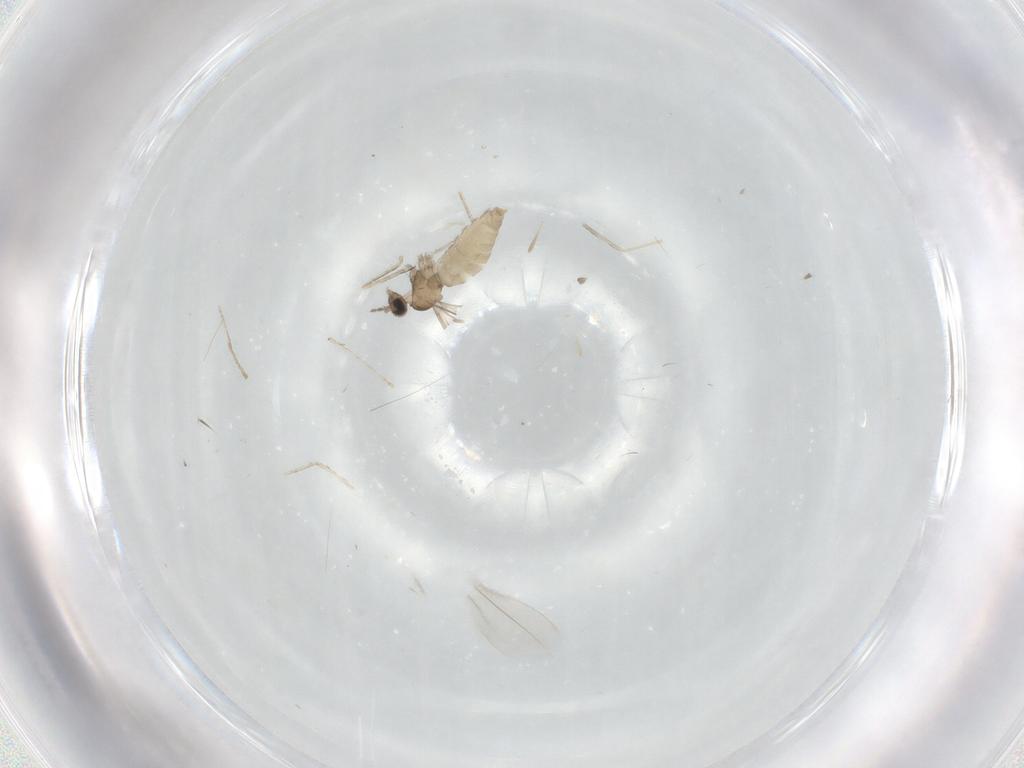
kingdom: Animalia
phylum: Arthropoda
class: Insecta
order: Diptera
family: Cecidomyiidae
